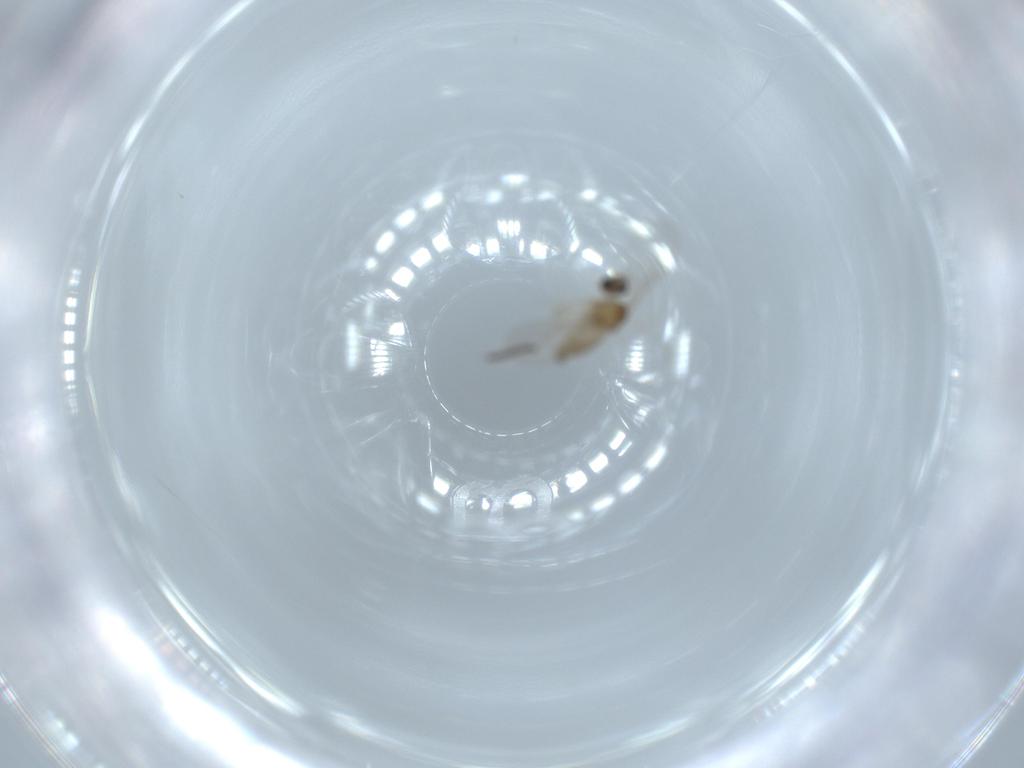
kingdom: Animalia
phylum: Arthropoda
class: Insecta
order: Diptera
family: Cecidomyiidae
